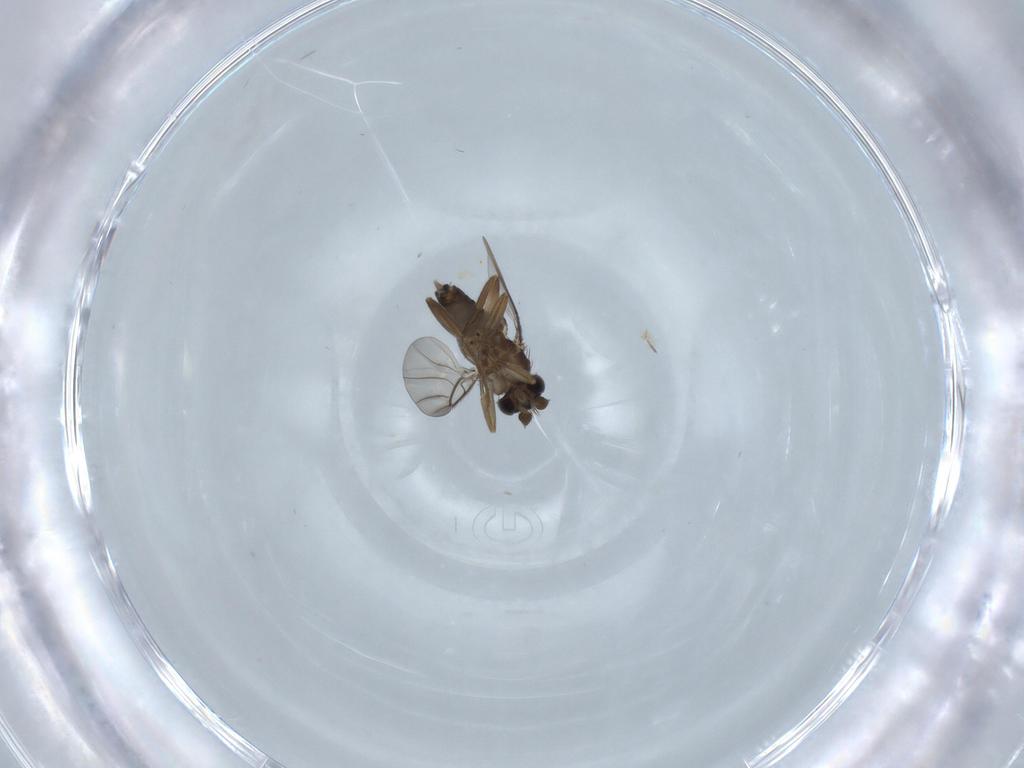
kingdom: Animalia
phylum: Arthropoda
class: Insecta
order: Diptera
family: Phoridae
